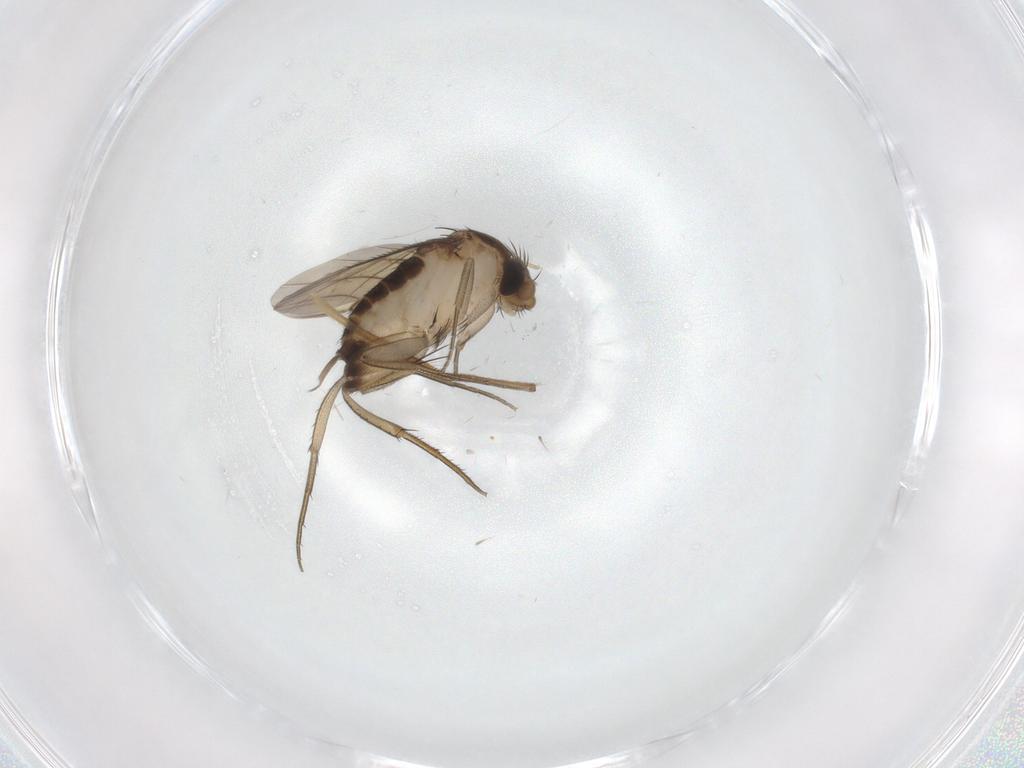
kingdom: Animalia
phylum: Arthropoda
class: Insecta
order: Diptera
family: Phoridae
